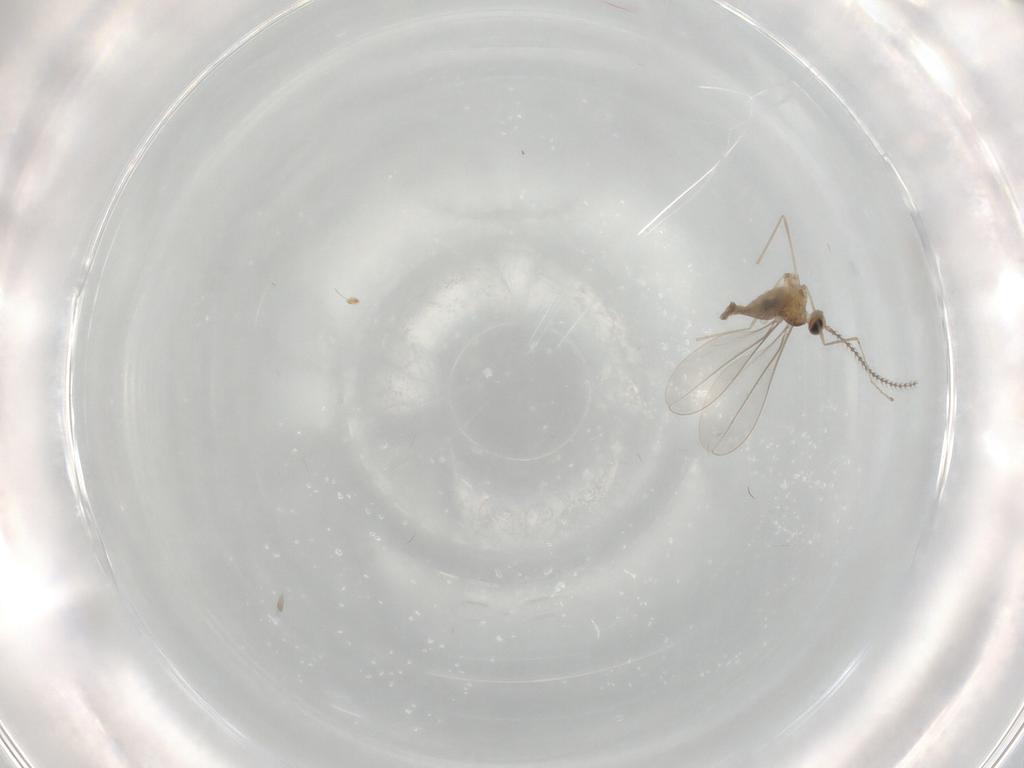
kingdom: Animalia
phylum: Arthropoda
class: Insecta
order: Diptera
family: Cecidomyiidae
